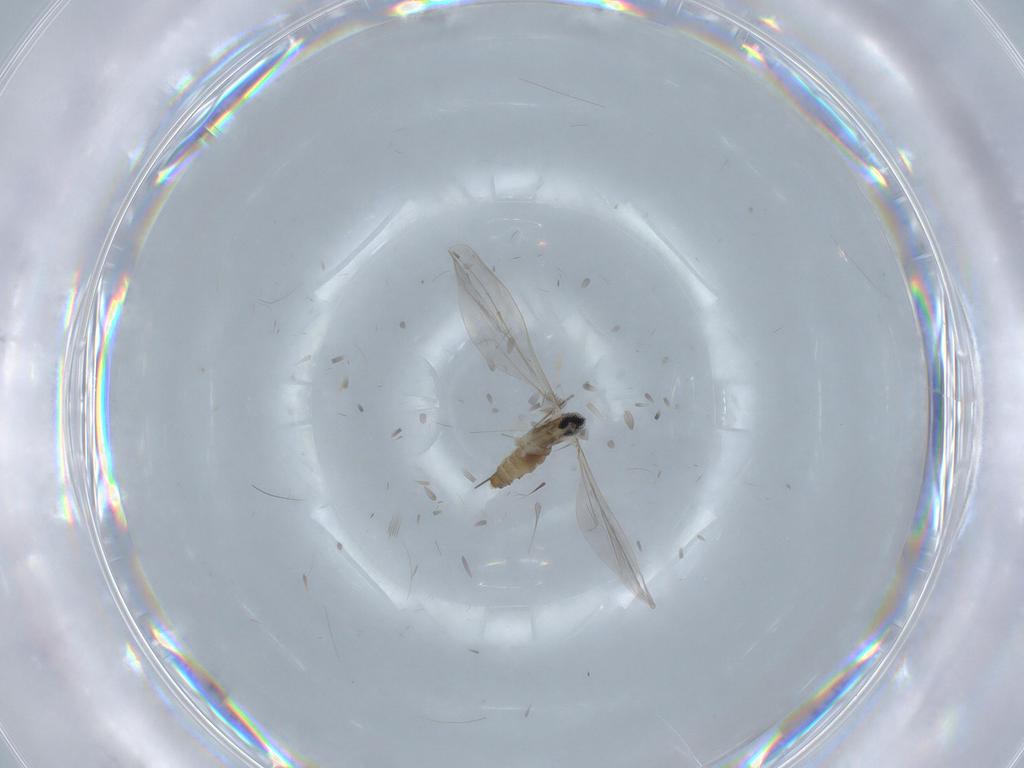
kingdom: Animalia
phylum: Arthropoda
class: Insecta
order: Diptera
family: Cecidomyiidae
